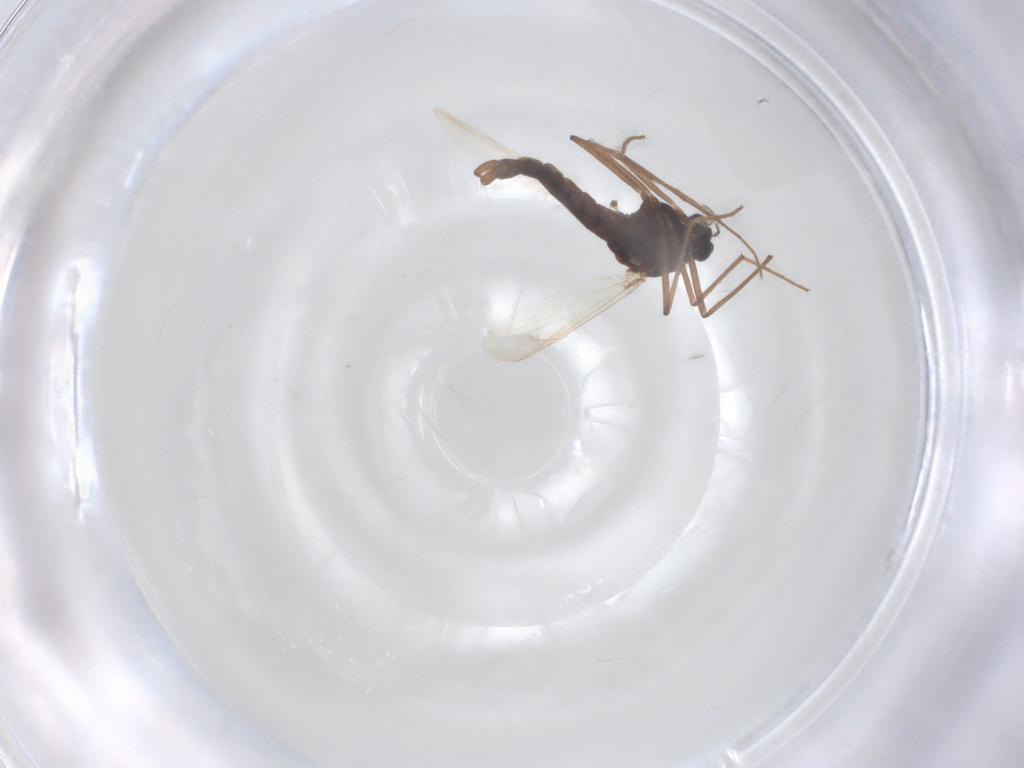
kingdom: Animalia
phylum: Arthropoda
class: Insecta
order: Diptera
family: Chironomidae
